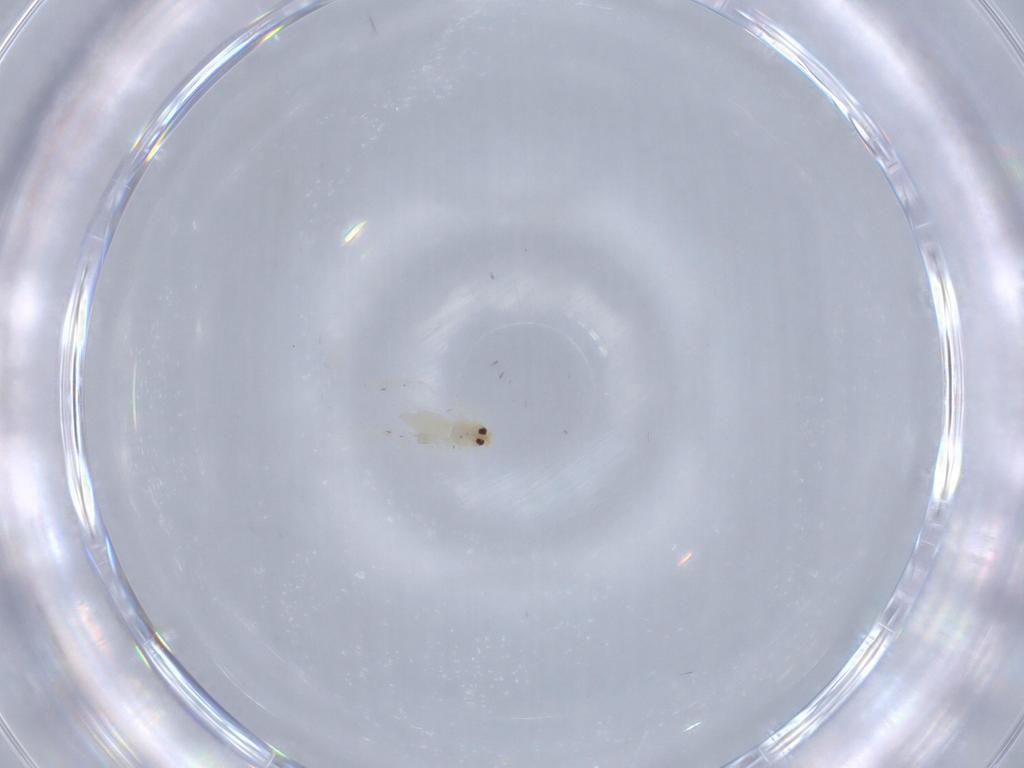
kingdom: Animalia
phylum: Arthropoda
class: Insecta
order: Hemiptera
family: Aleyrodidae
